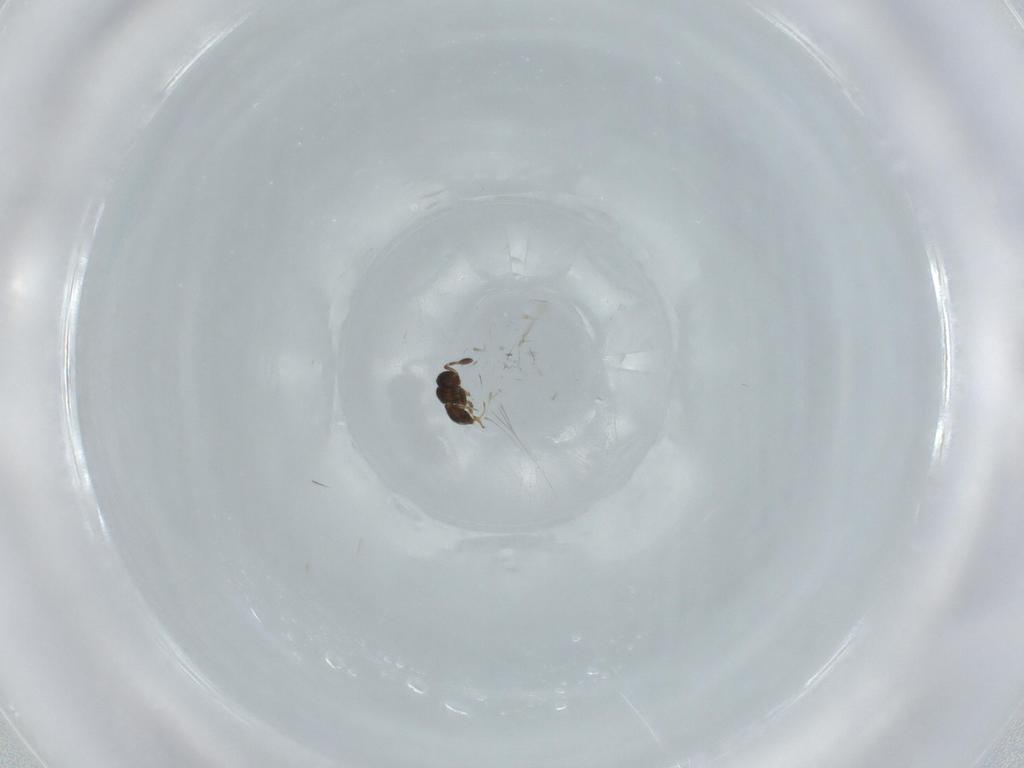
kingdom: Animalia
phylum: Arthropoda
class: Insecta
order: Hymenoptera
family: Scelionidae
